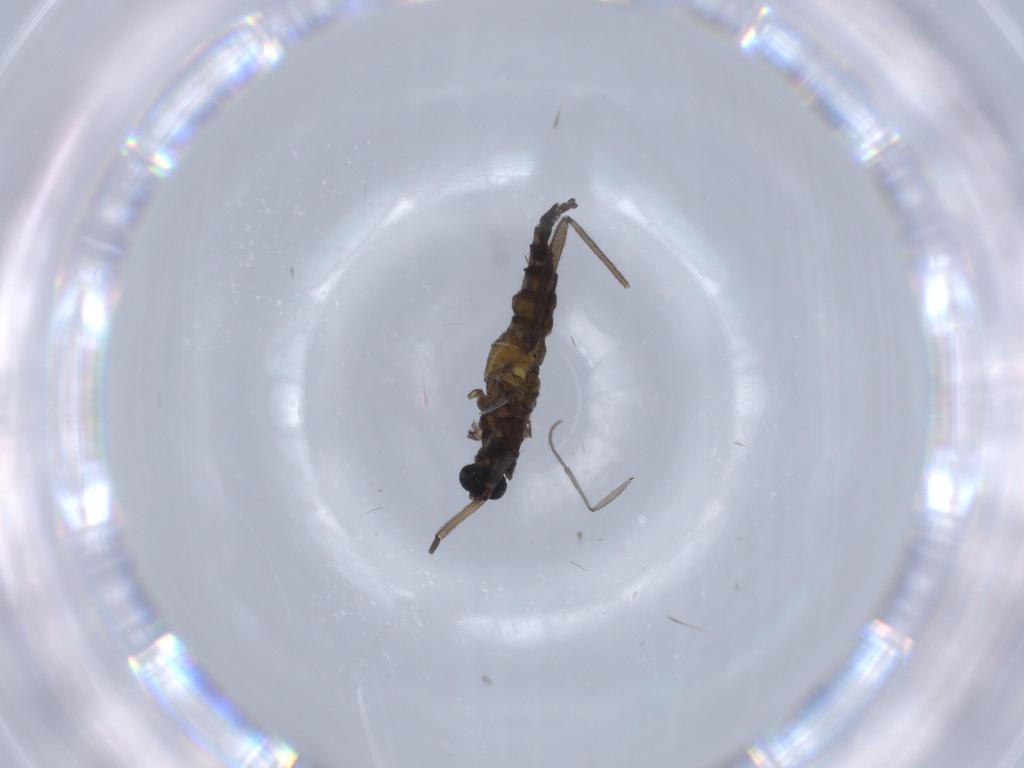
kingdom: Animalia
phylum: Arthropoda
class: Insecta
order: Diptera
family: Sciaridae
